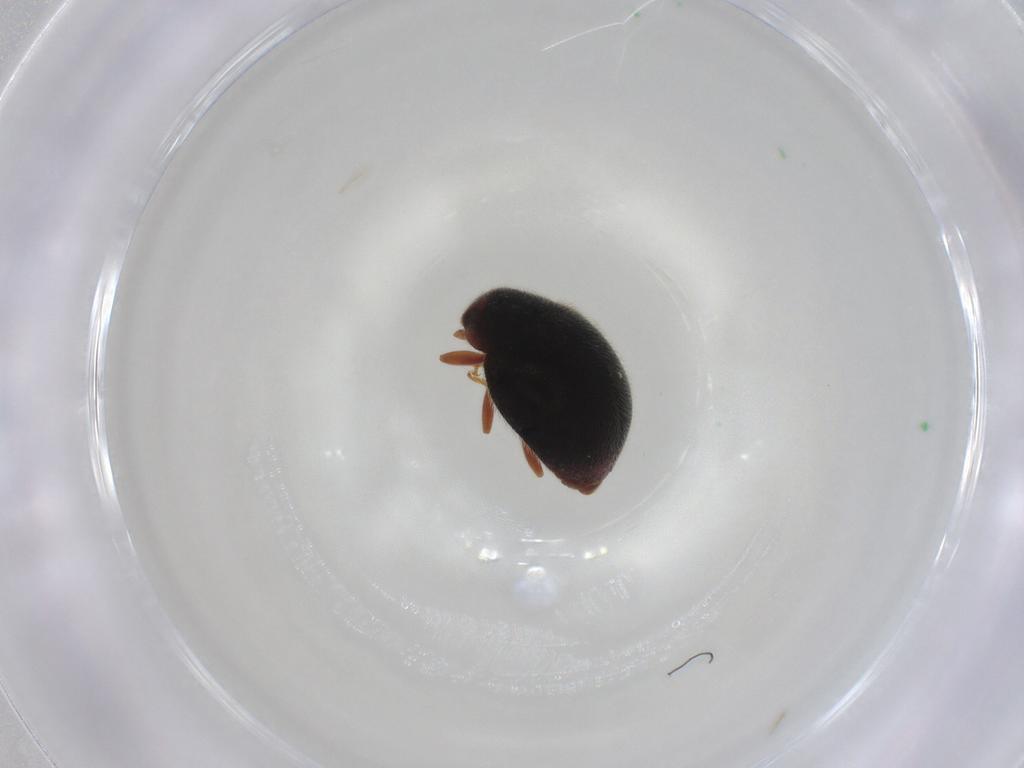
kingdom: Animalia
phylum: Arthropoda
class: Insecta
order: Coleoptera
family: Coccinellidae
